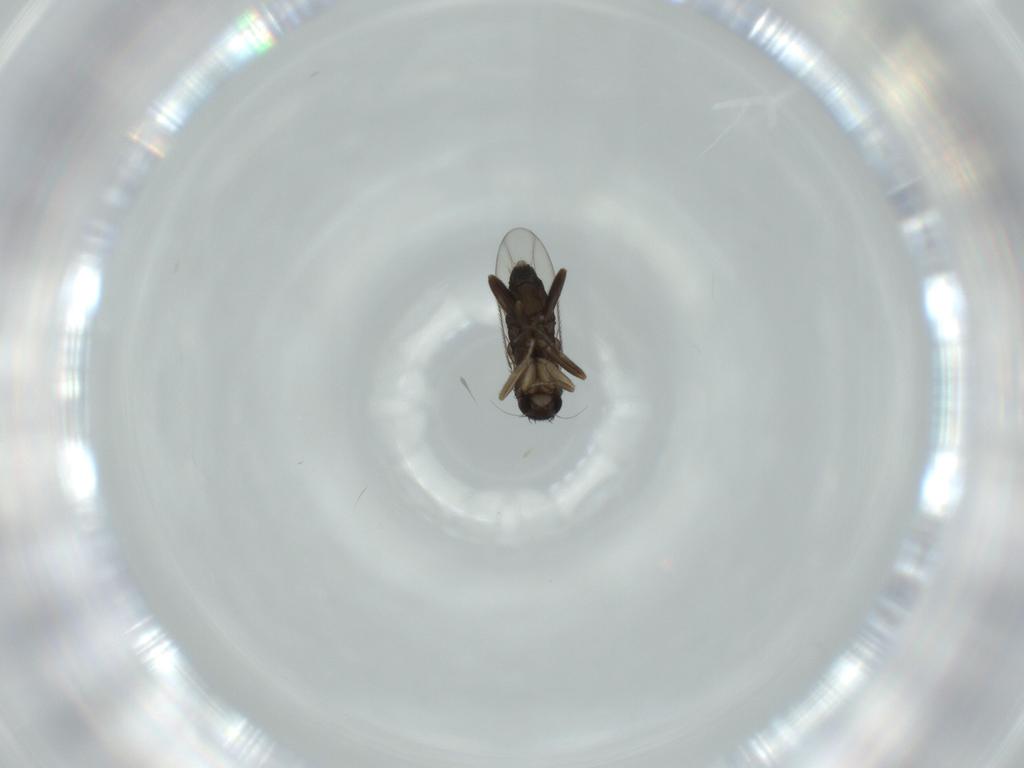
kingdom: Animalia
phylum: Arthropoda
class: Insecta
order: Diptera
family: Phoridae
